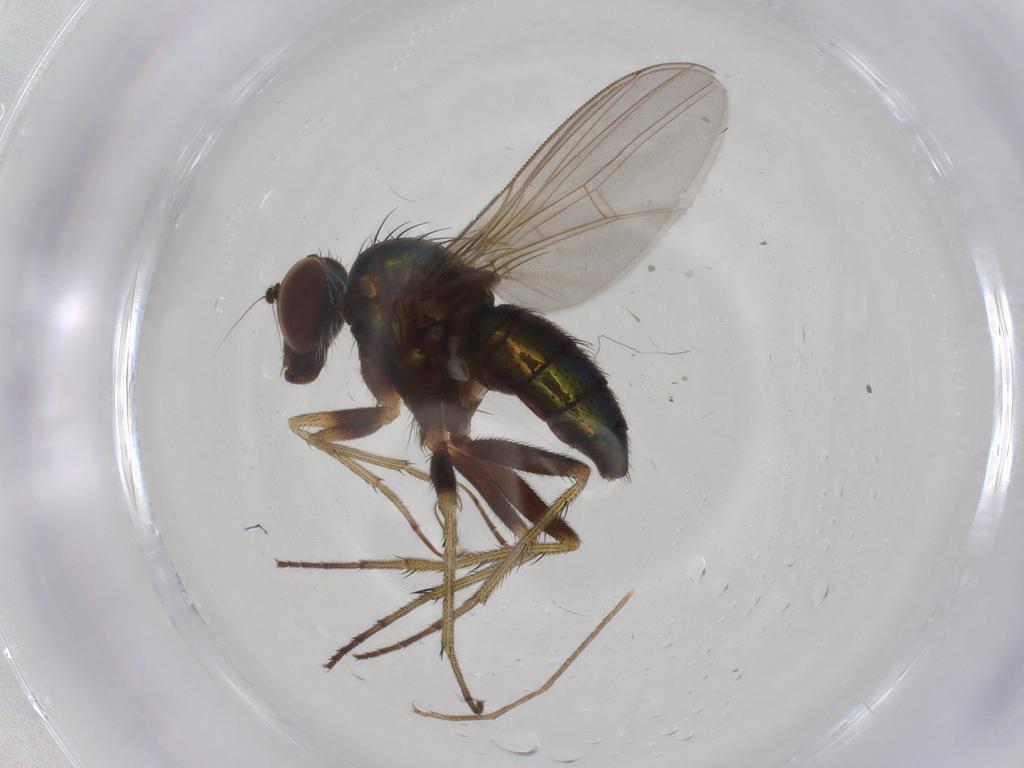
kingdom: Animalia
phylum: Arthropoda
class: Insecta
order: Diptera
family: Dolichopodidae
